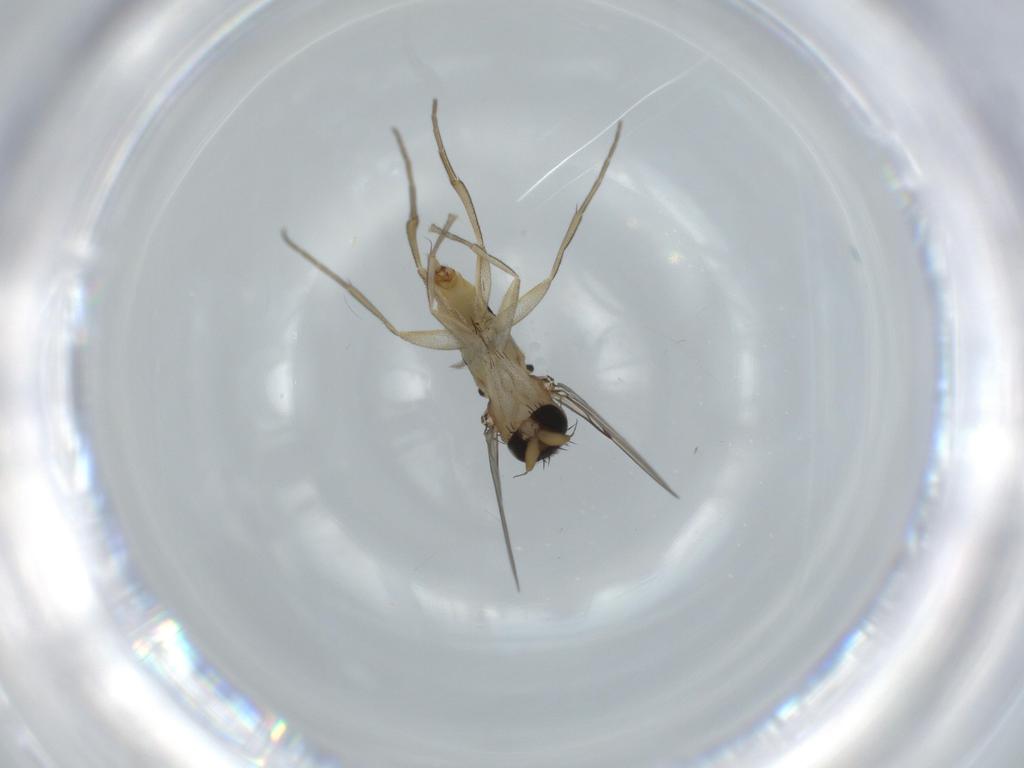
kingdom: Animalia
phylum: Arthropoda
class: Insecta
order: Diptera
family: Phoridae
